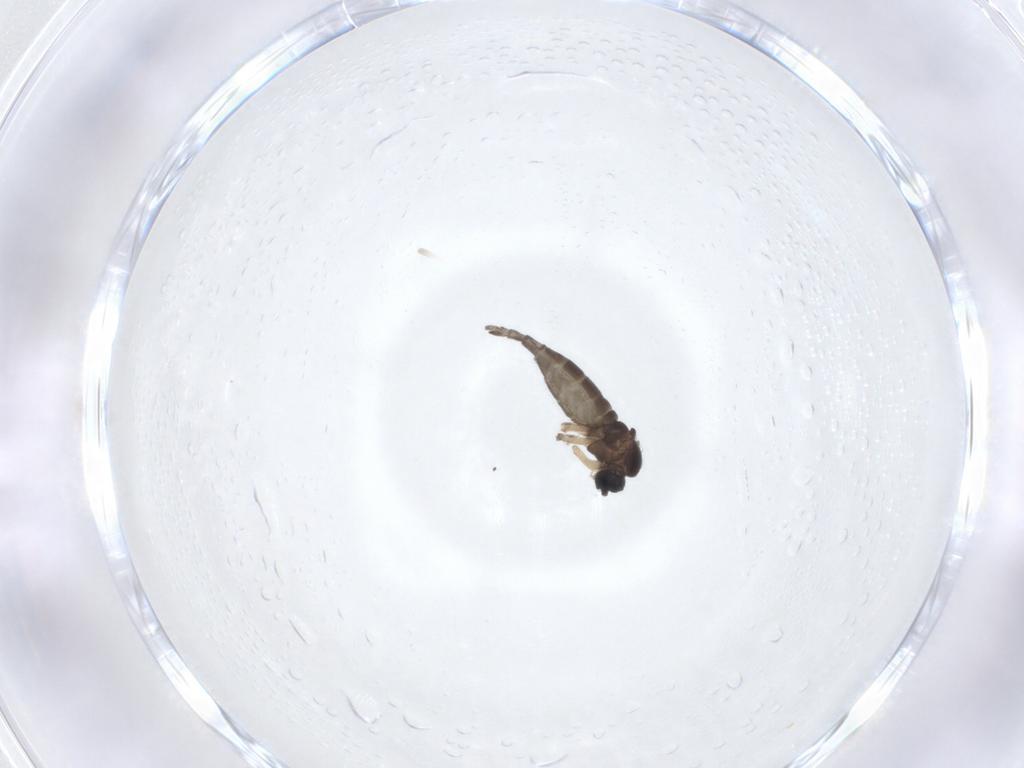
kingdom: Animalia
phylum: Arthropoda
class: Insecta
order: Diptera
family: Sciaridae
